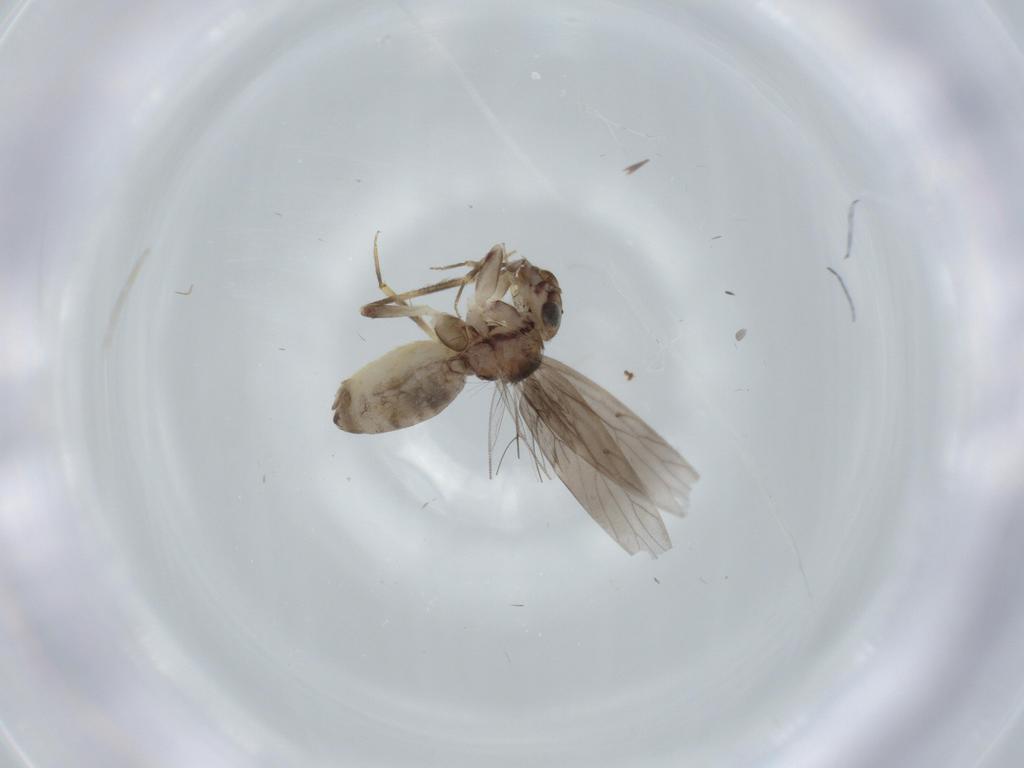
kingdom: Animalia
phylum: Arthropoda
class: Insecta
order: Psocodea
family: Lepidopsocidae
